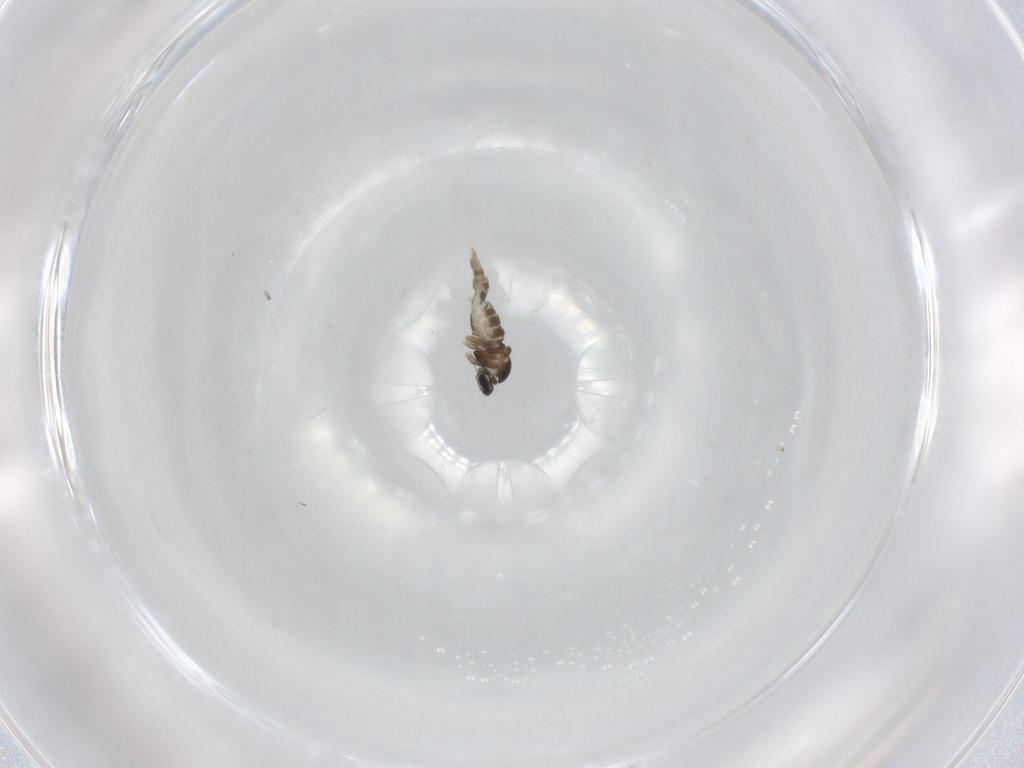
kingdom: Animalia
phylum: Arthropoda
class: Insecta
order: Diptera
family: Cecidomyiidae
